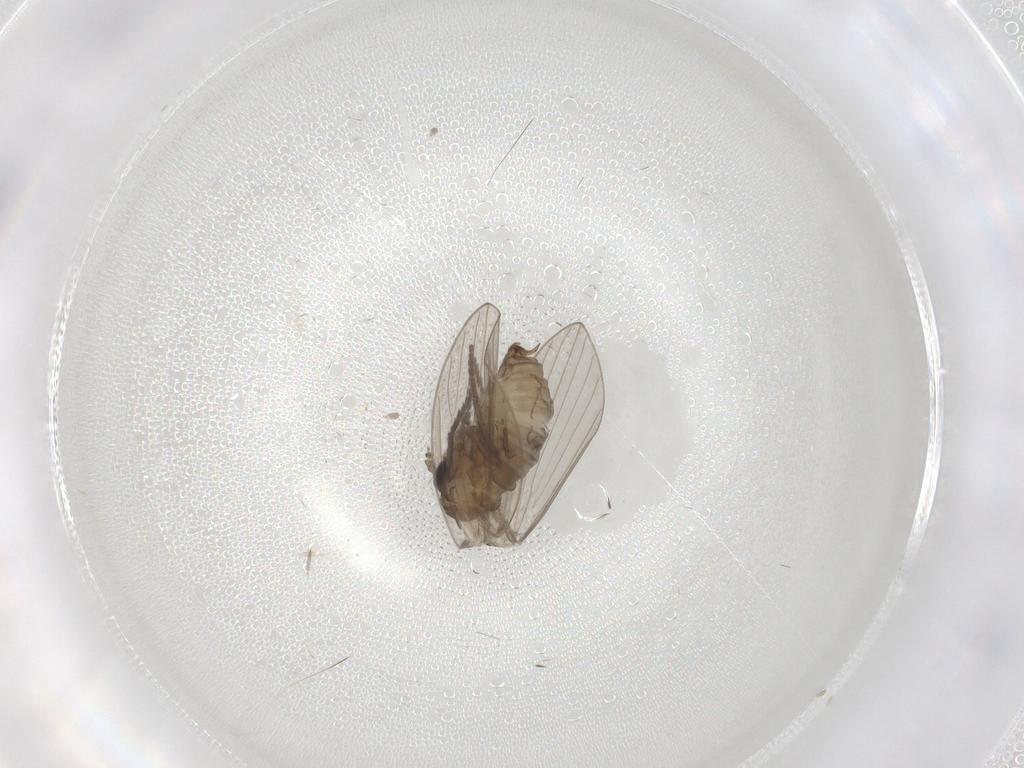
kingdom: Animalia
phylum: Arthropoda
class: Insecta
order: Diptera
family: Psychodidae
